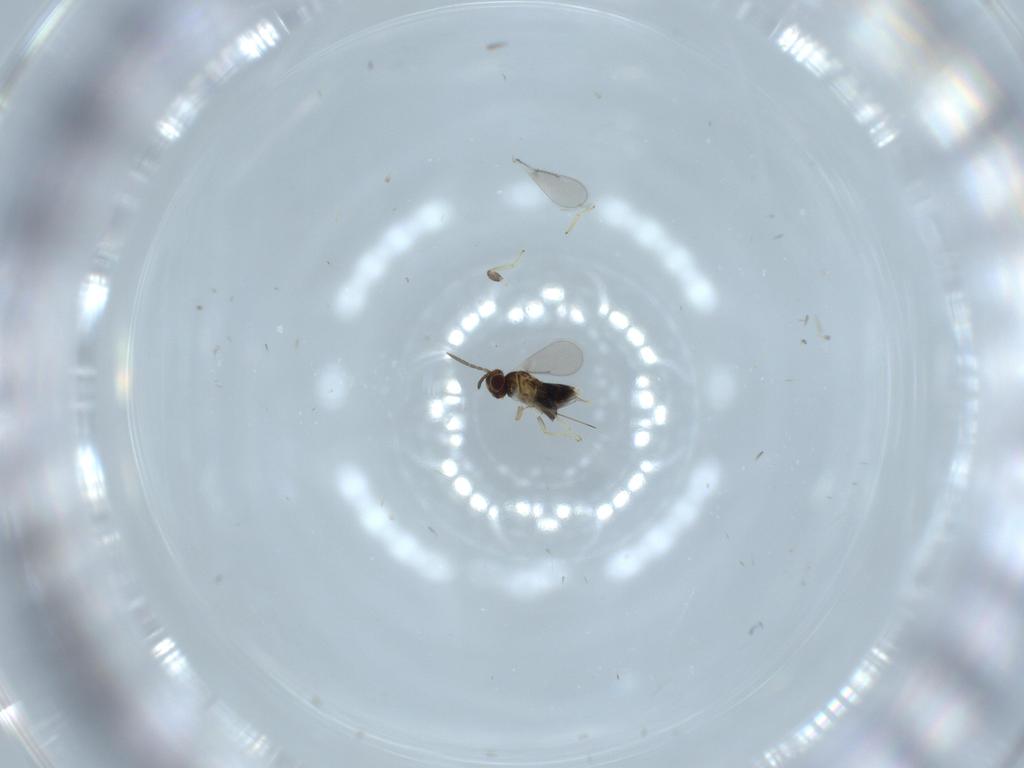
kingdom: Animalia
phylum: Arthropoda
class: Insecta
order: Hymenoptera
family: Aphelinidae
